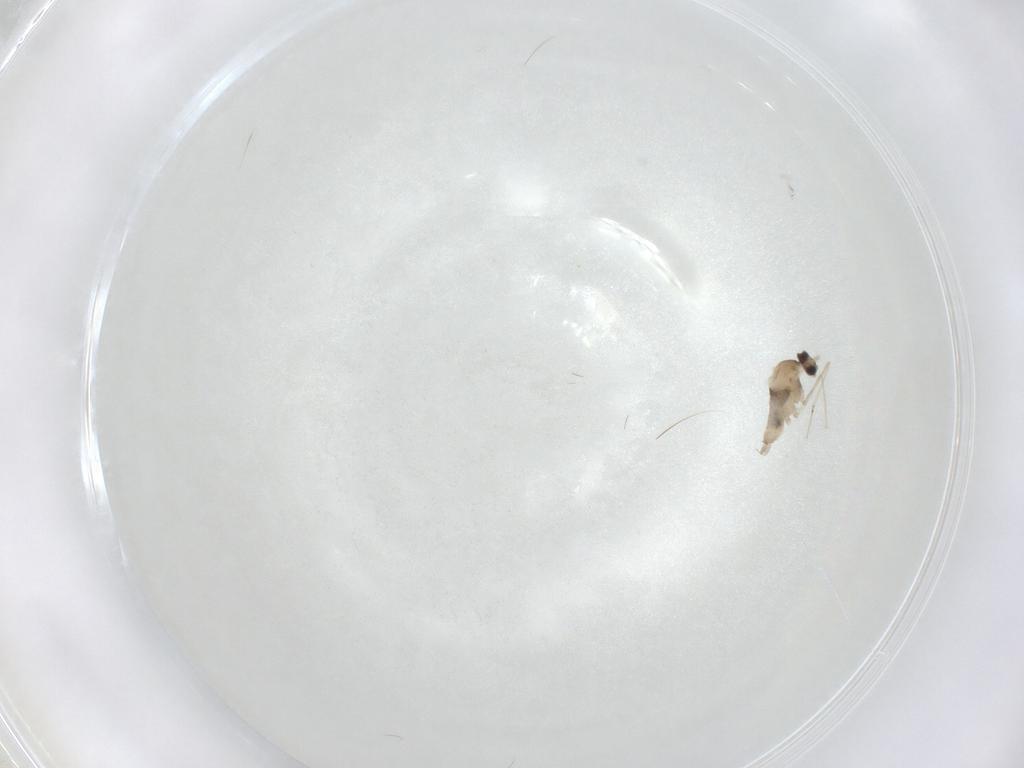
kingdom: Animalia
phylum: Arthropoda
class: Insecta
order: Diptera
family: Cecidomyiidae
